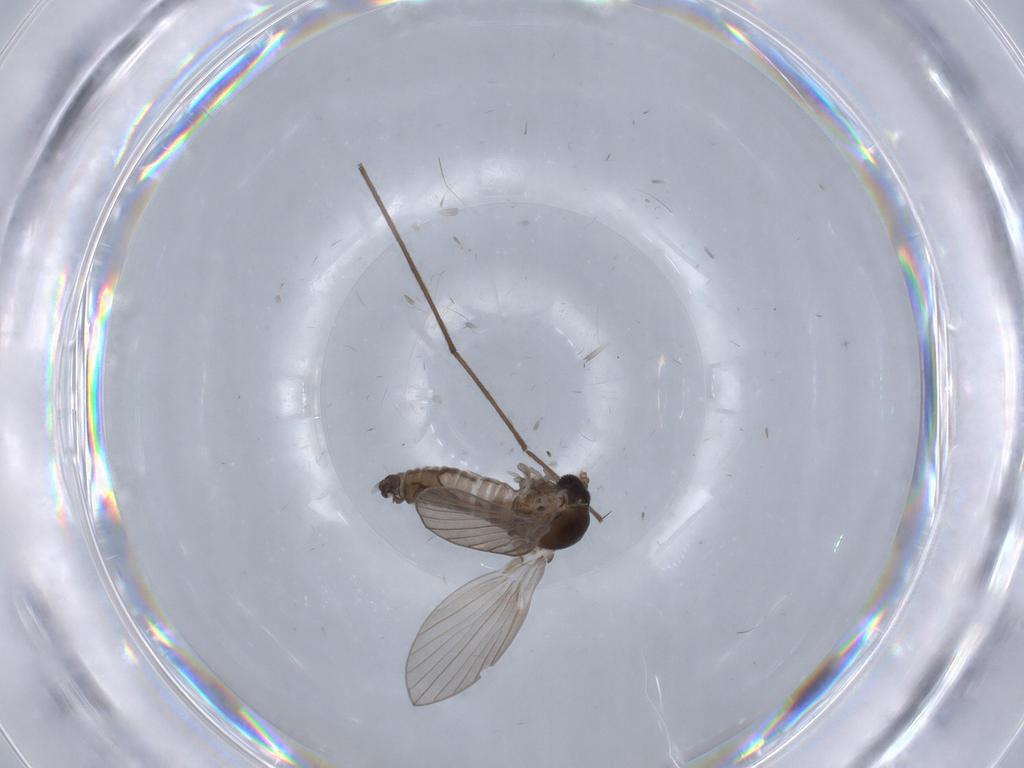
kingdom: Animalia
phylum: Arthropoda
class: Insecta
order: Diptera
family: Psychodidae
